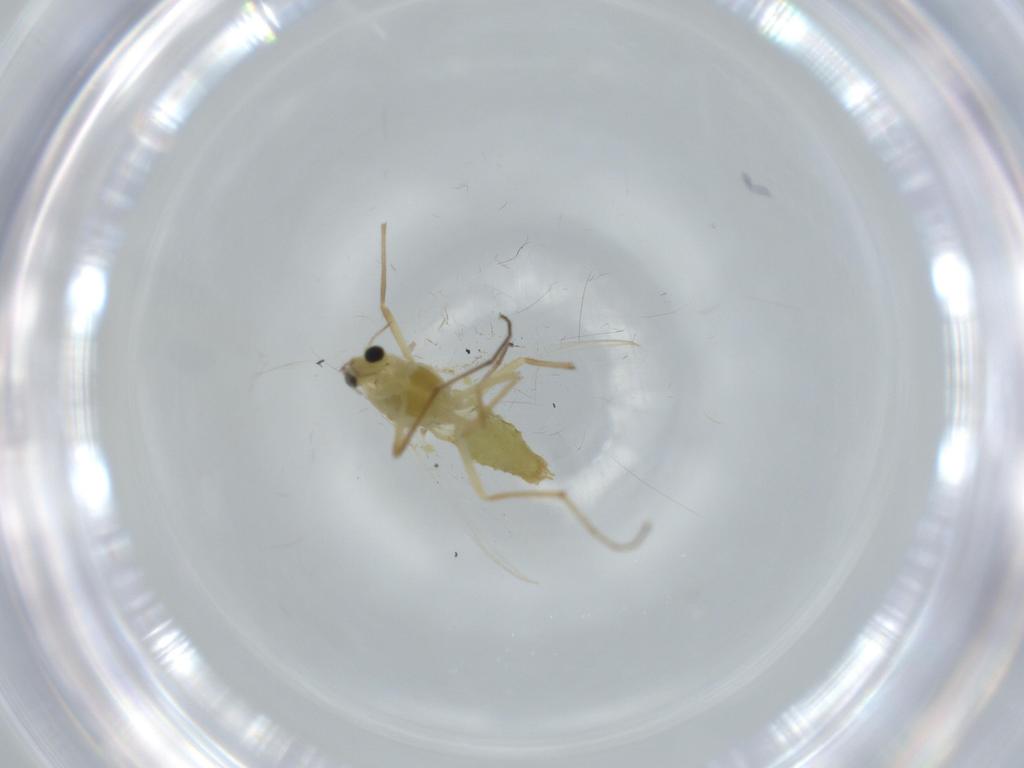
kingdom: Animalia
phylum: Arthropoda
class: Insecta
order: Diptera
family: Chironomidae
